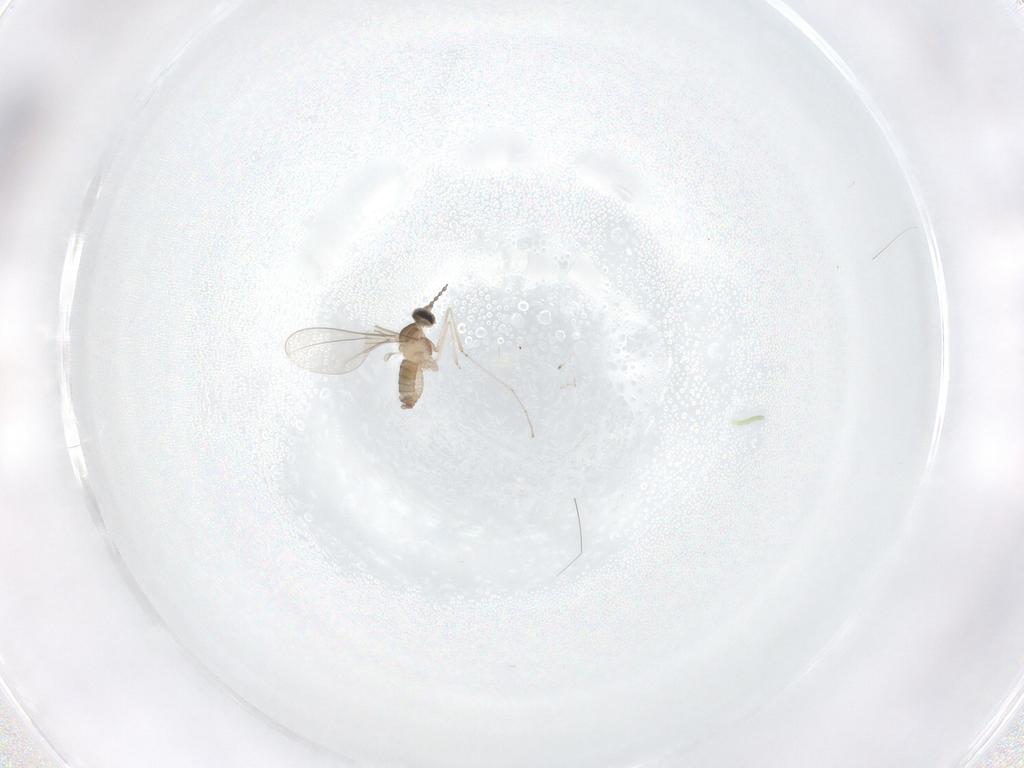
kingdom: Animalia
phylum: Arthropoda
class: Insecta
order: Diptera
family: Cecidomyiidae
